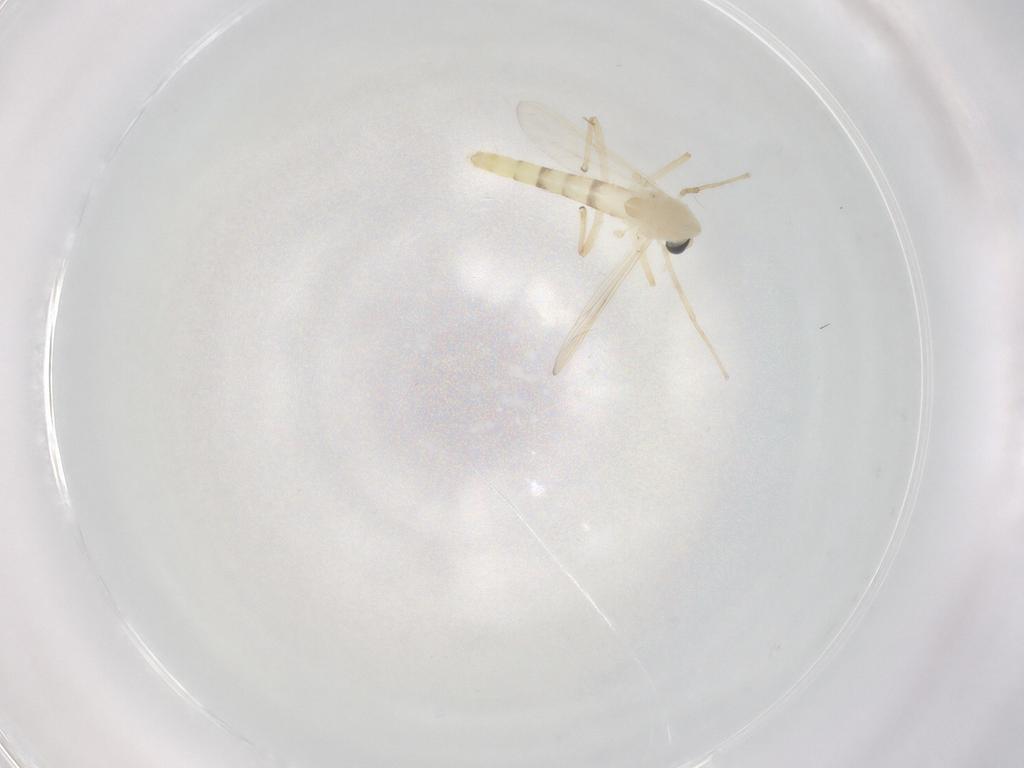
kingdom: Animalia
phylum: Arthropoda
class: Insecta
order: Diptera
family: Chironomidae
